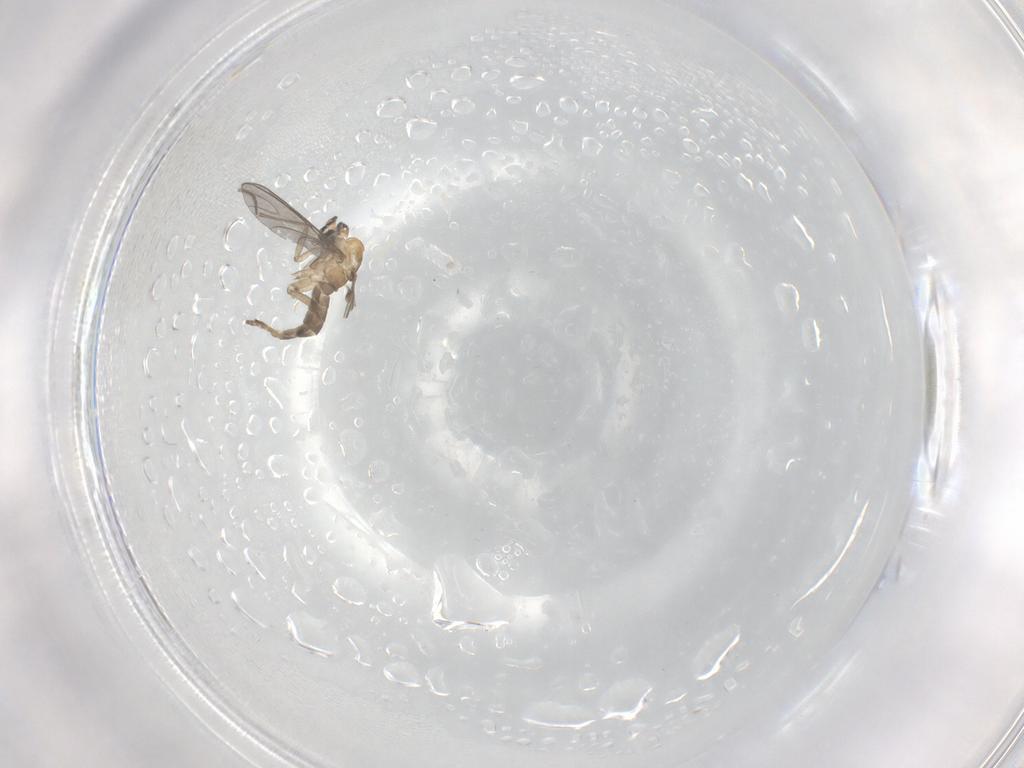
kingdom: Animalia
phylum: Arthropoda
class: Insecta
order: Diptera
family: Sciaridae
